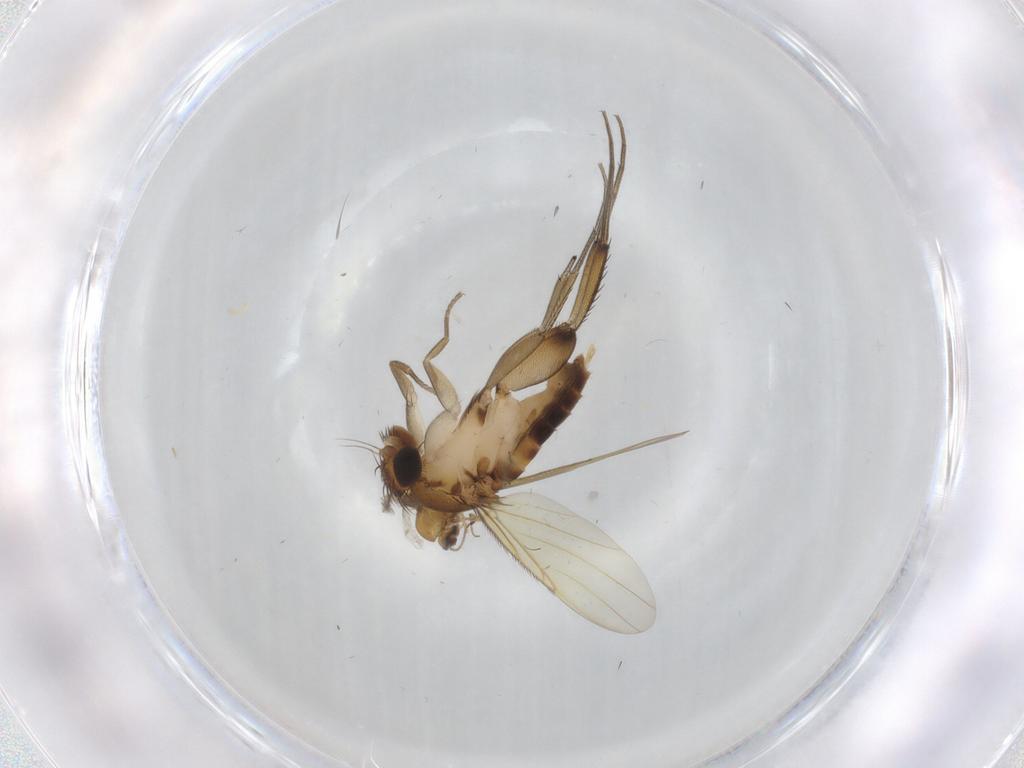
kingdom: Animalia
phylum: Arthropoda
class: Insecta
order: Diptera
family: Phoridae
